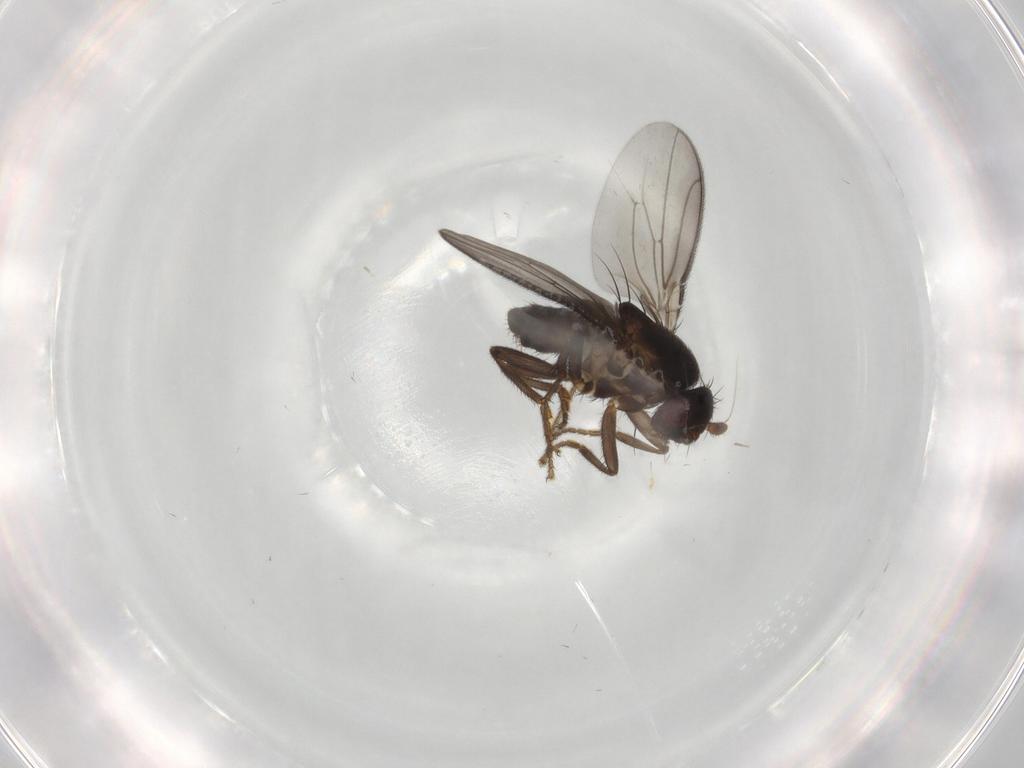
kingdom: Animalia
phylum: Arthropoda
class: Insecta
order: Diptera
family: Sphaeroceridae
